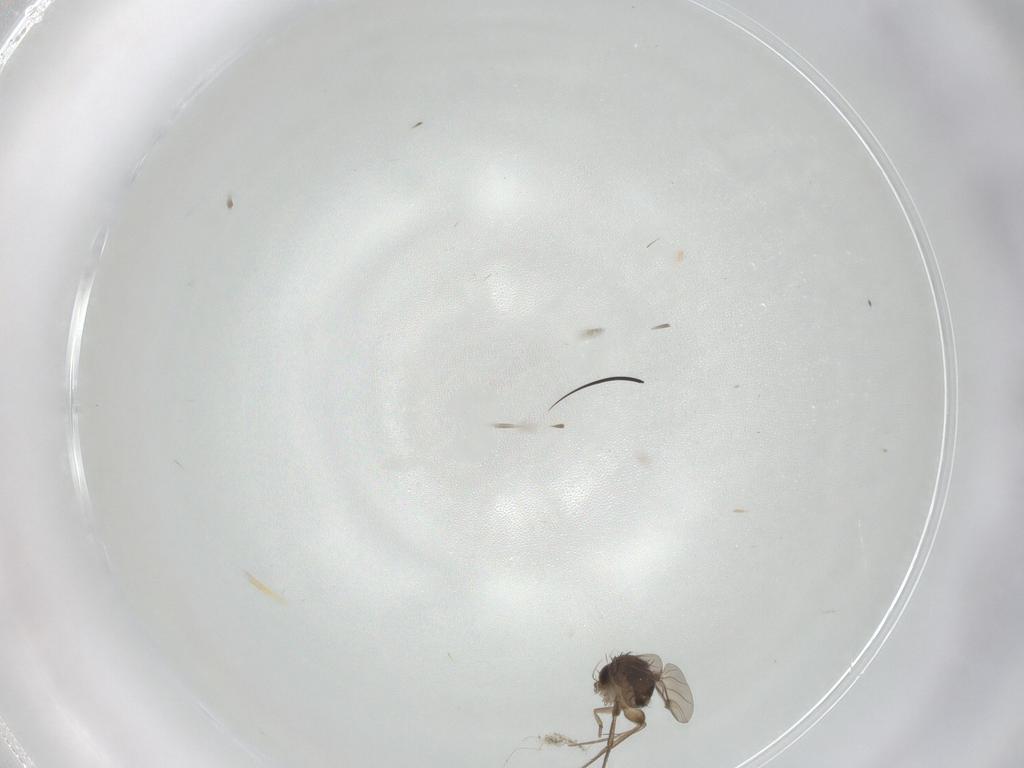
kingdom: Animalia
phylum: Arthropoda
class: Insecta
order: Diptera
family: Phoridae
